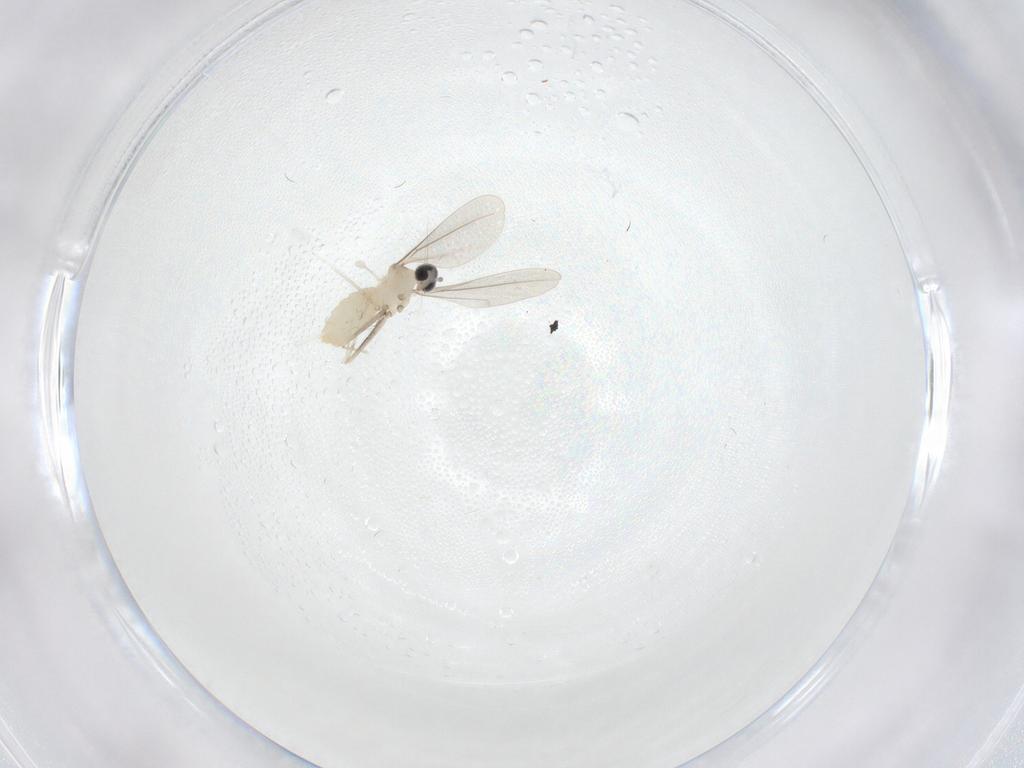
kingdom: Animalia
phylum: Arthropoda
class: Insecta
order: Diptera
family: Cecidomyiidae
